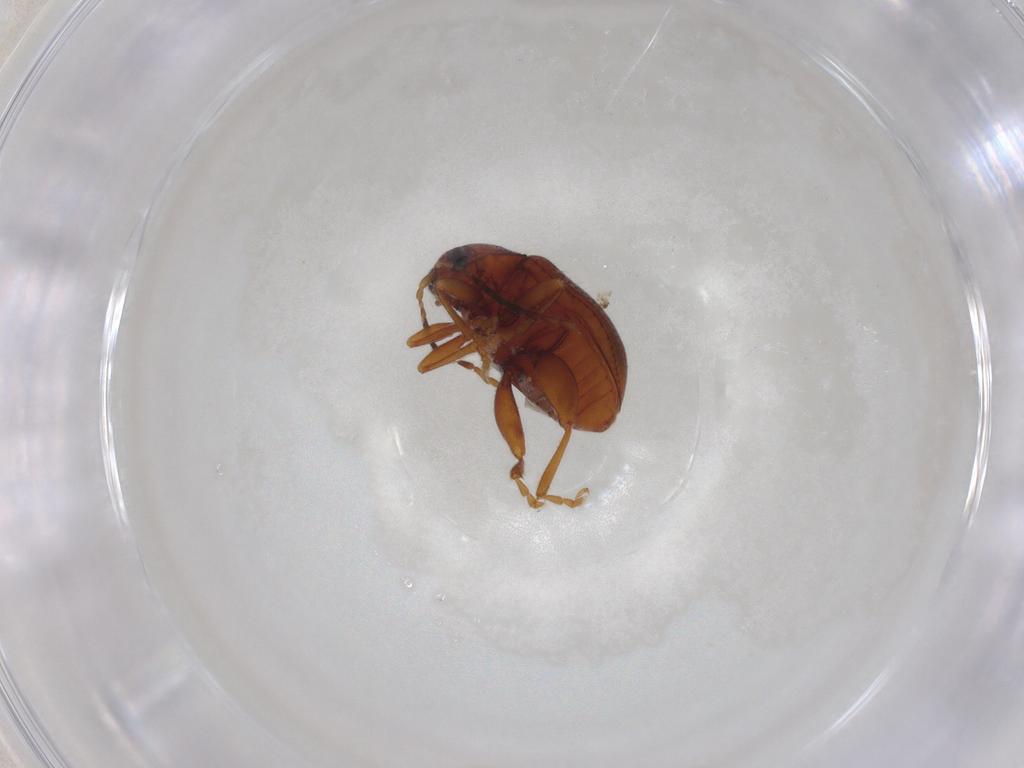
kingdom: Animalia
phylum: Arthropoda
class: Insecta
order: Coleoptera
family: Chrysomelidae
